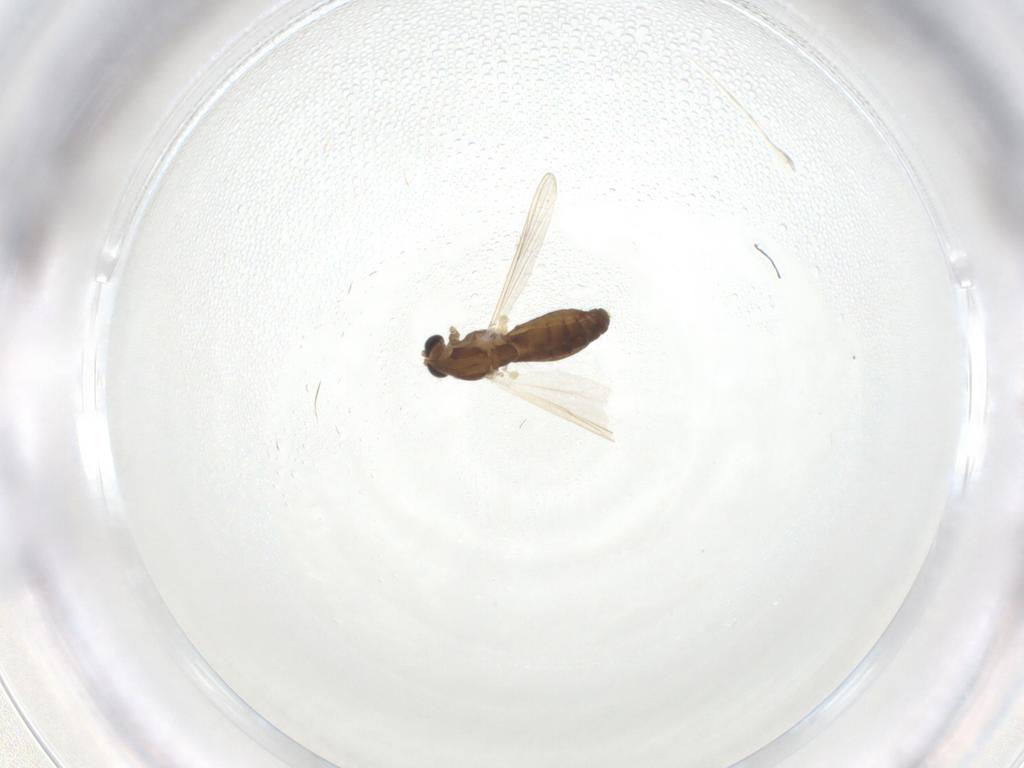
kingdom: Animalia
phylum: Arthropoda
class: Insecta
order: Diptera
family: Chironomidae
